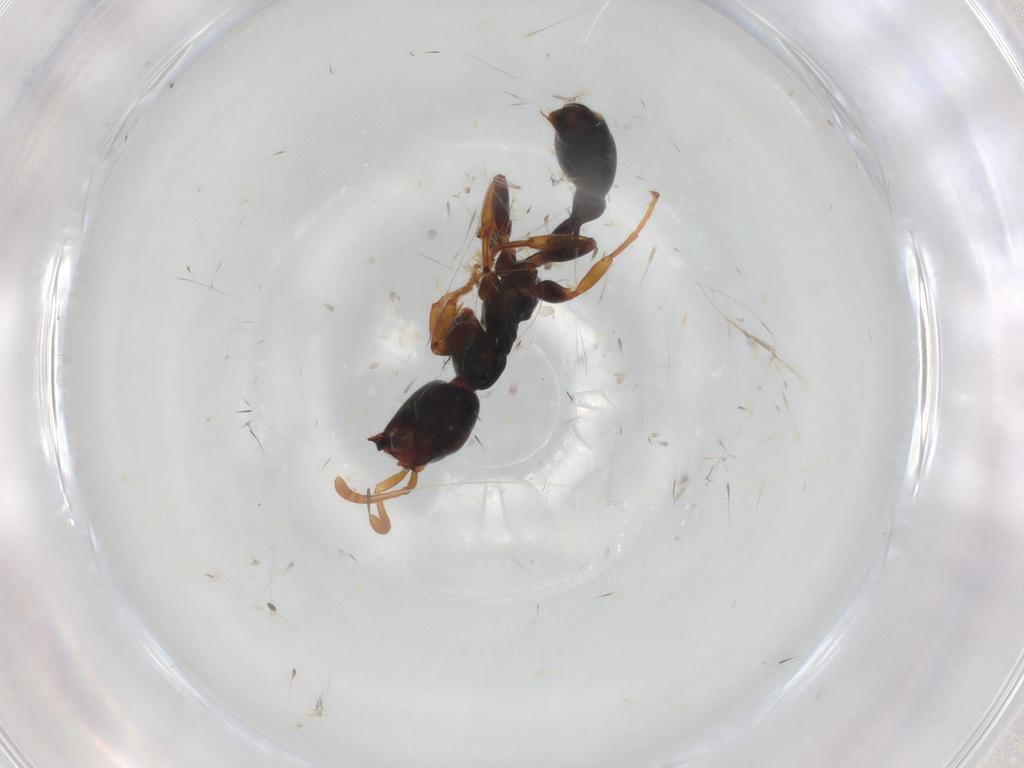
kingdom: Animalia
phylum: Arthropoda
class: Insecta
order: Hymenoptera
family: Formicidae
